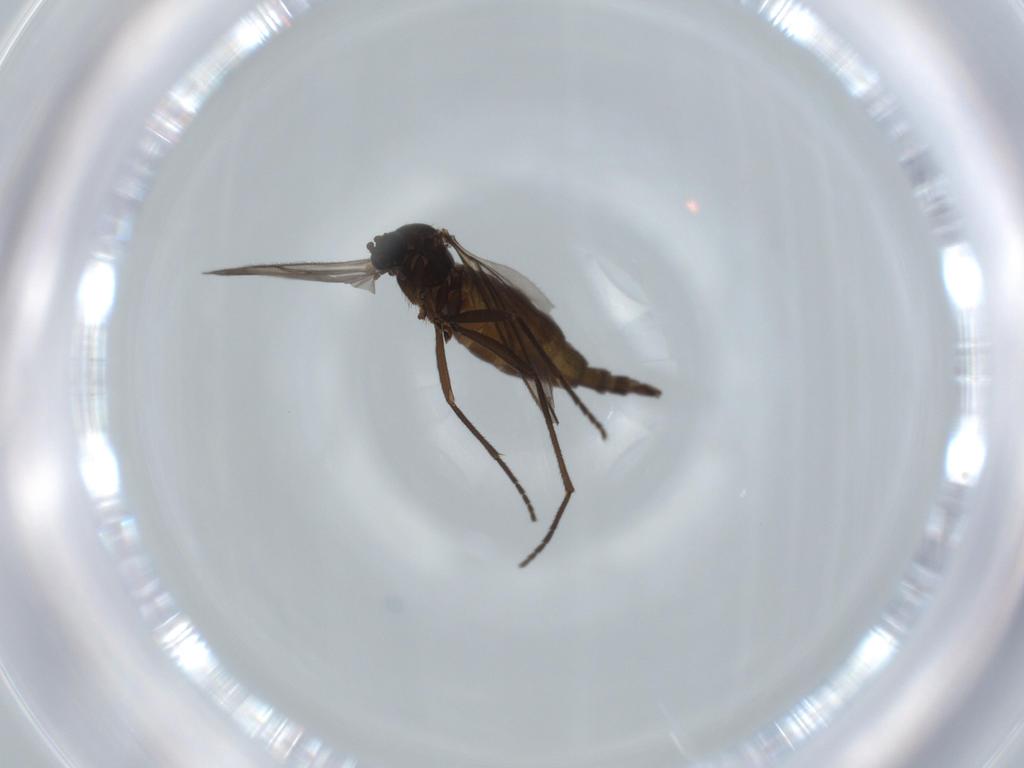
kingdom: Animalia
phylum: Arthropoda
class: Insecta
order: Diptera
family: Sciaridae
